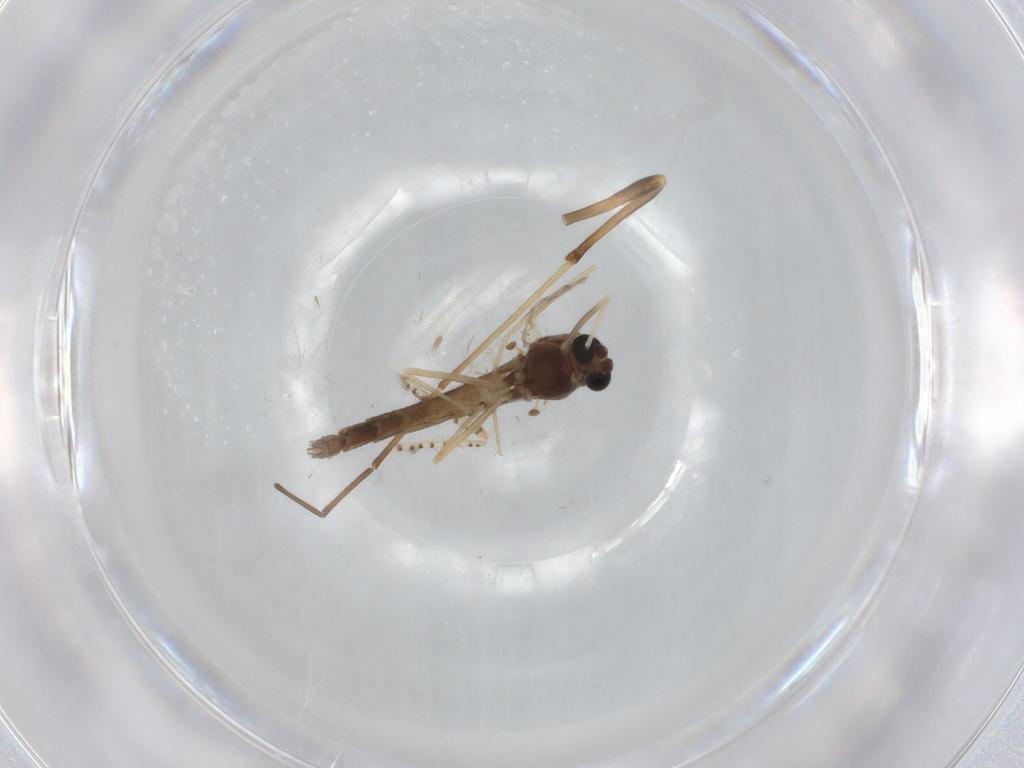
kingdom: Animalia
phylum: Arthropoda
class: Insecta
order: Diptera
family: Chironomidae
